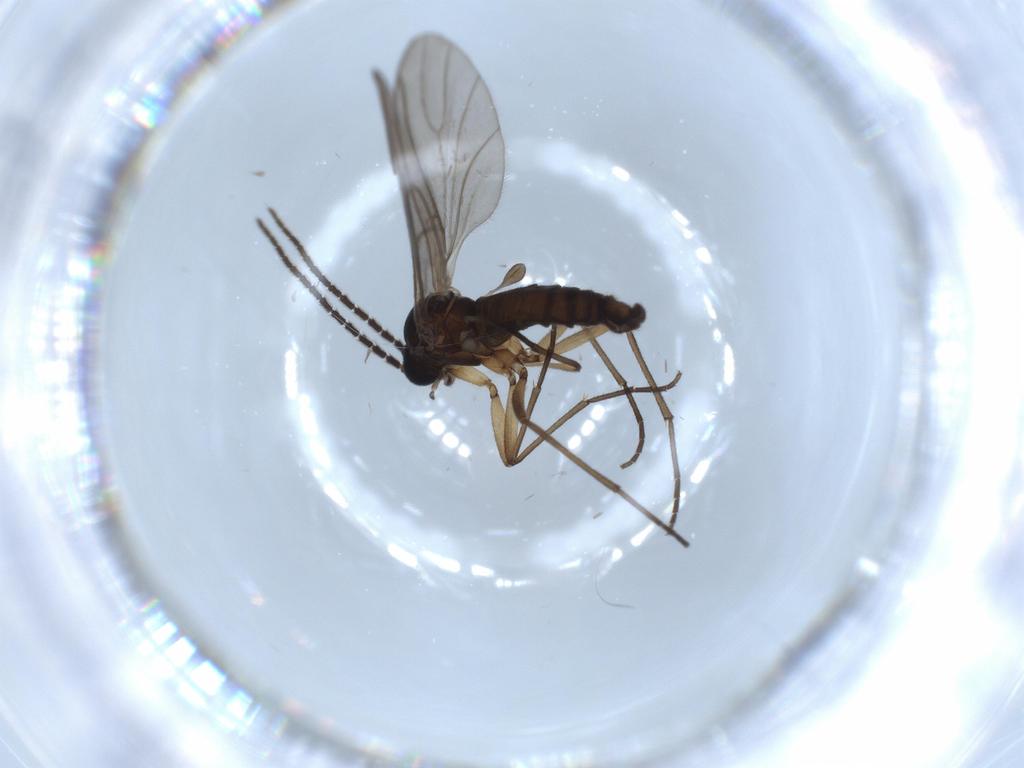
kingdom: Animalia
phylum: Arthropoda
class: Insecta
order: Diptera
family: Sciaridae
